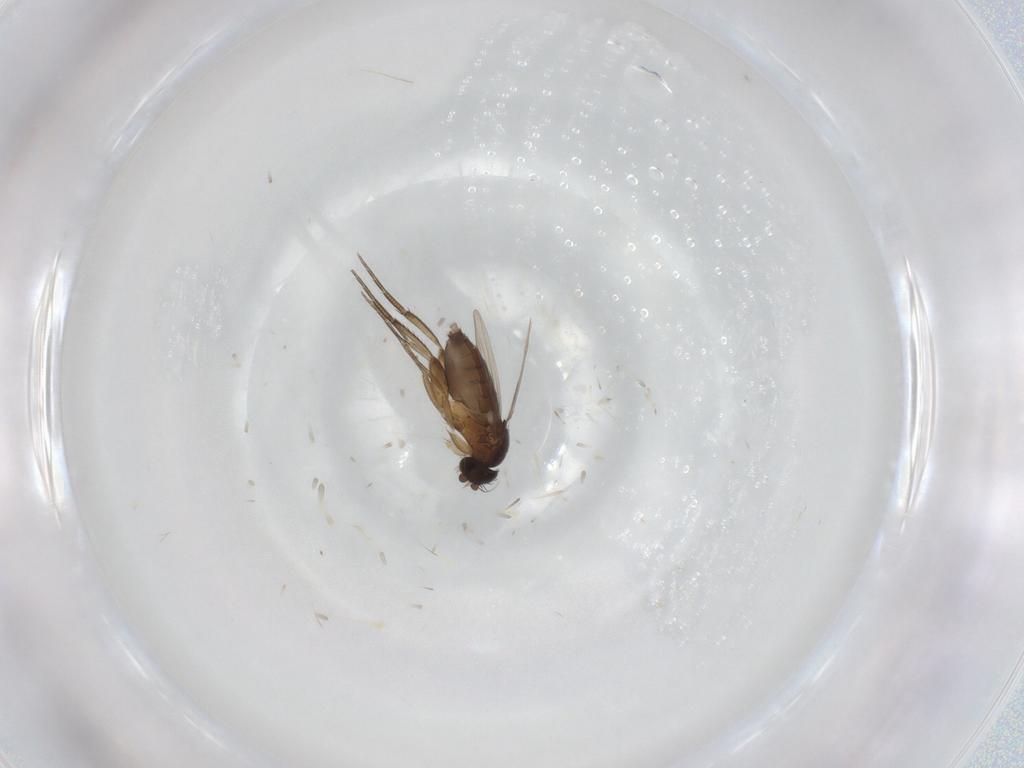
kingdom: Animalia
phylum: Arthropoda
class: Insecta
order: Diptera
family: Phoridae
